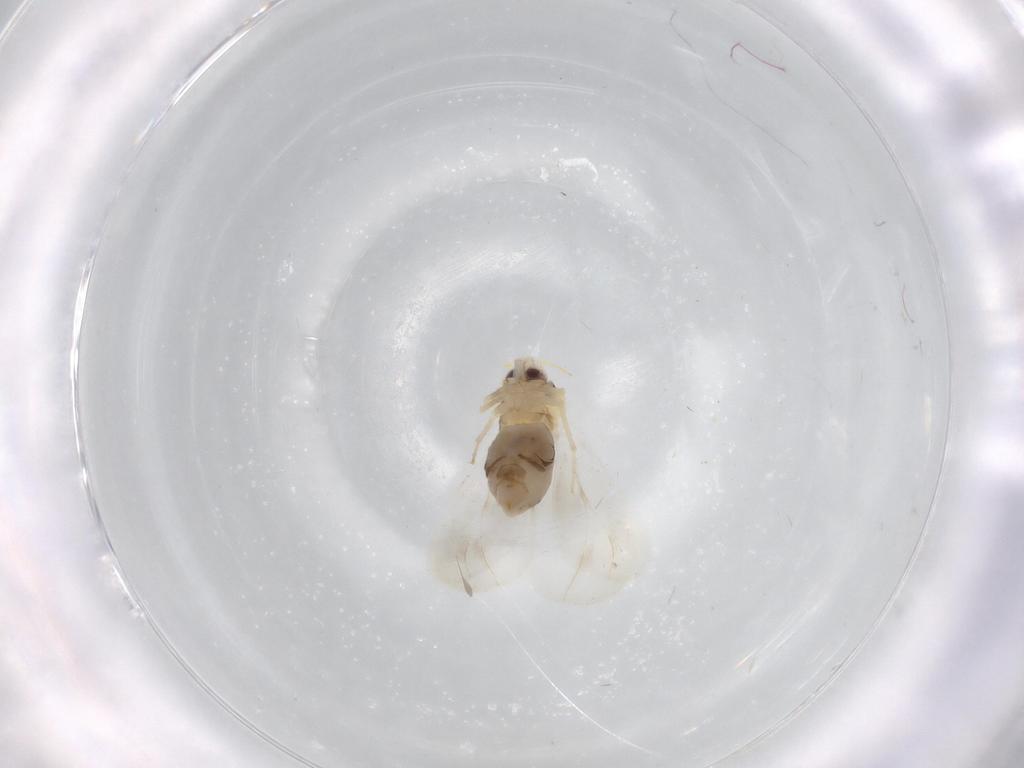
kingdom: Animalia
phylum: Arthropoda
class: Insecta
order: Hemiptera
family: Aleyrodidae
